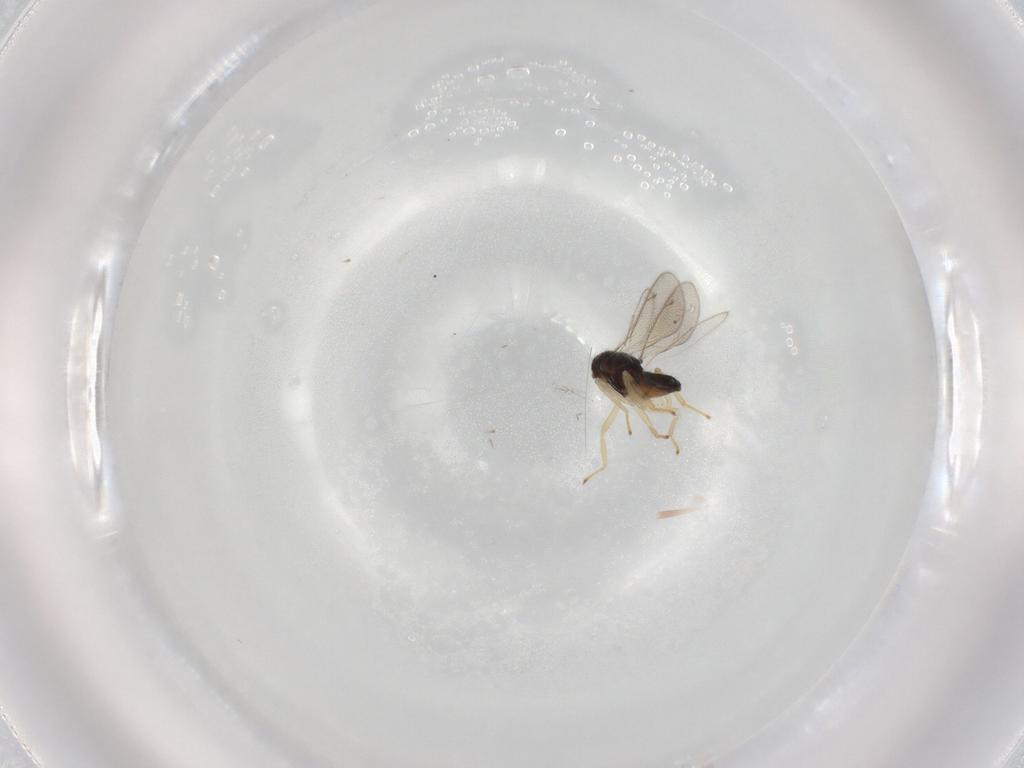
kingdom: Animalia
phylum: Arthropoda
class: Insecta
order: Hymenoptera
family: Eulophidae
